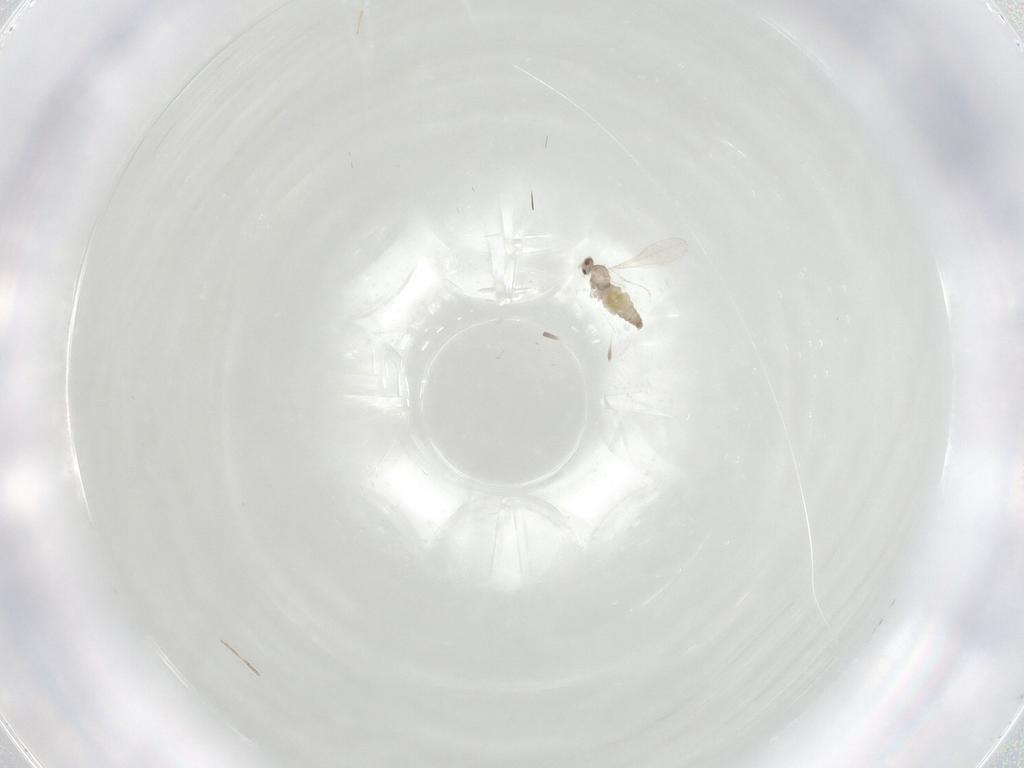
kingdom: Animalia
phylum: Arthropoda
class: Insecta
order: Diptera
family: Cecidomyiidae
